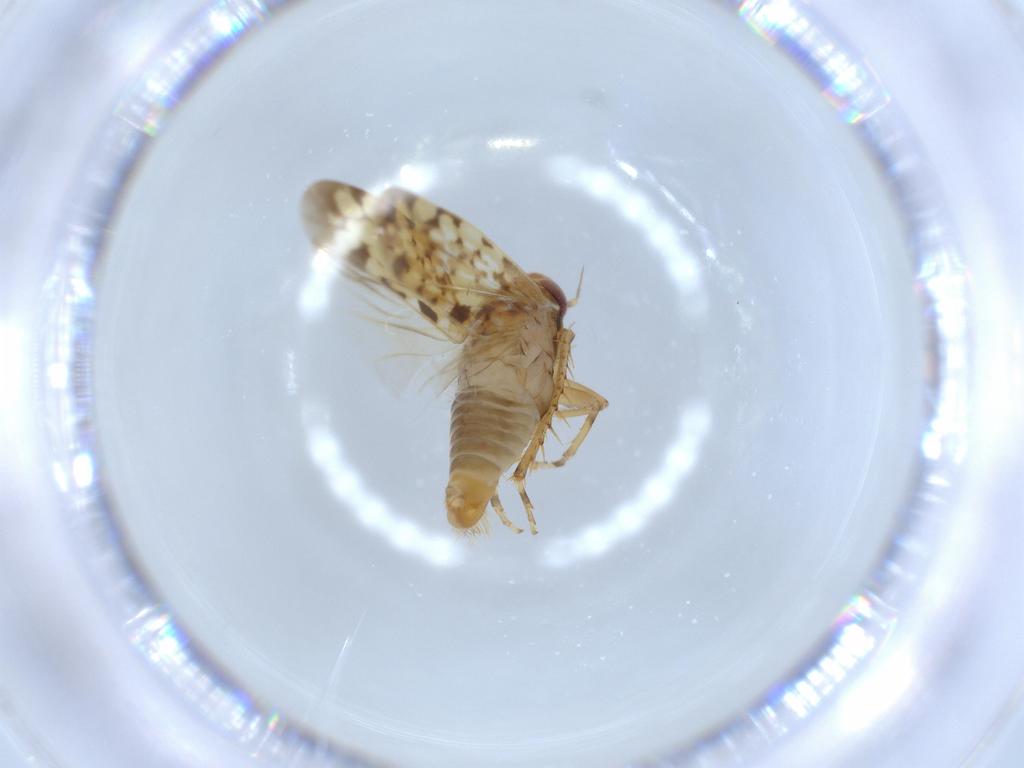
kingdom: Animalia
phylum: Arthropoda
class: Insecta
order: Hemiptera
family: Cicadellidae
